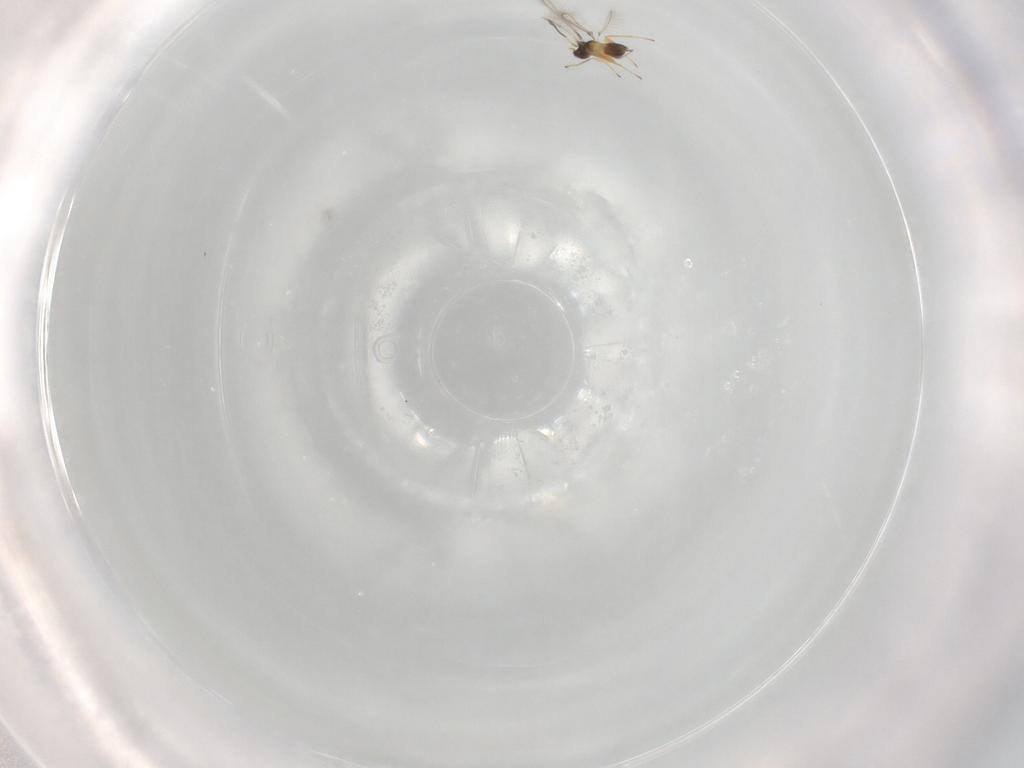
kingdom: Animalia
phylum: Arthropoda
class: Insecta
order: Hymenoptera
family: Mymaridae
